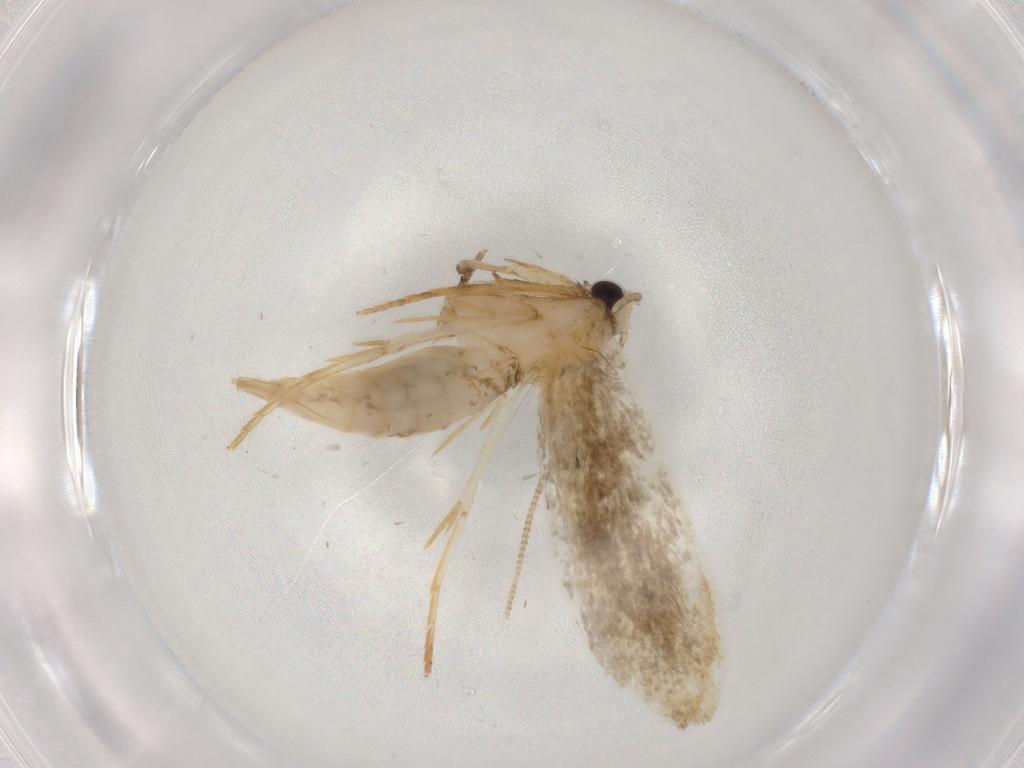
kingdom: Animalia
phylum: Arthropoda
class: Insecta
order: Lepidoptera
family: Tineidae
